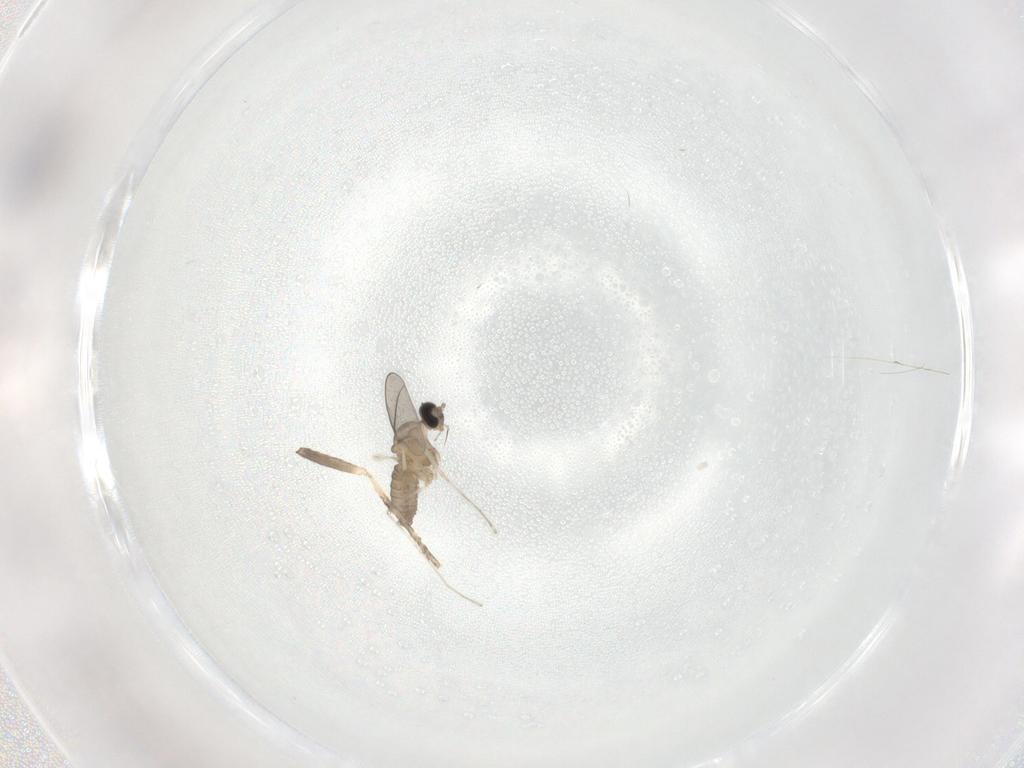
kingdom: Animalia
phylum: Arthropoda
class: Insecta
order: Diptera
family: Cecidomyiidae
